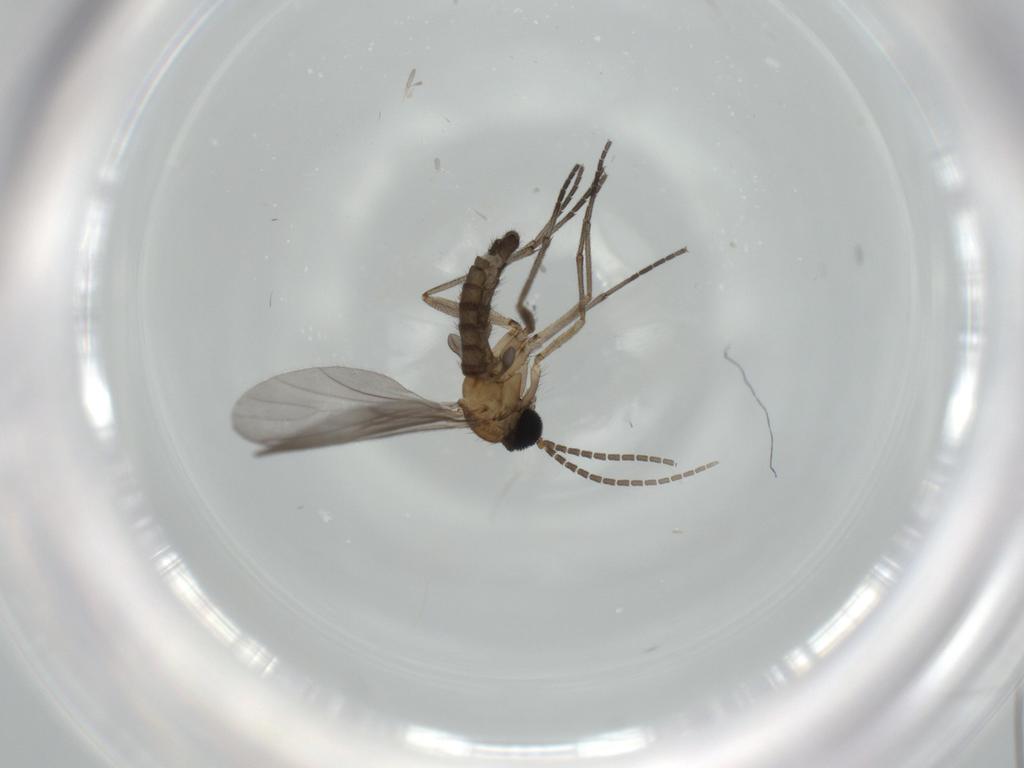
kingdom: Animalia
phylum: Arthropoda
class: Insecta
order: Diptera
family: Sciaridae
